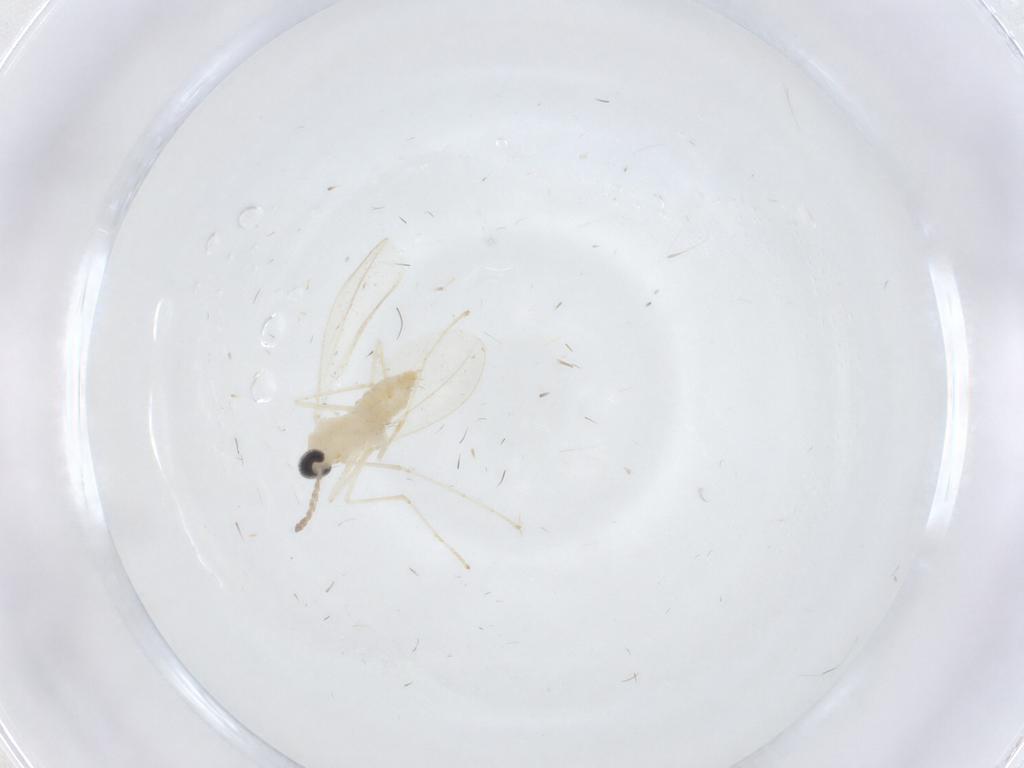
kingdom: Animalia
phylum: Arthropoda
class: Insecta
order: Diptera
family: Cecidomyiidae
